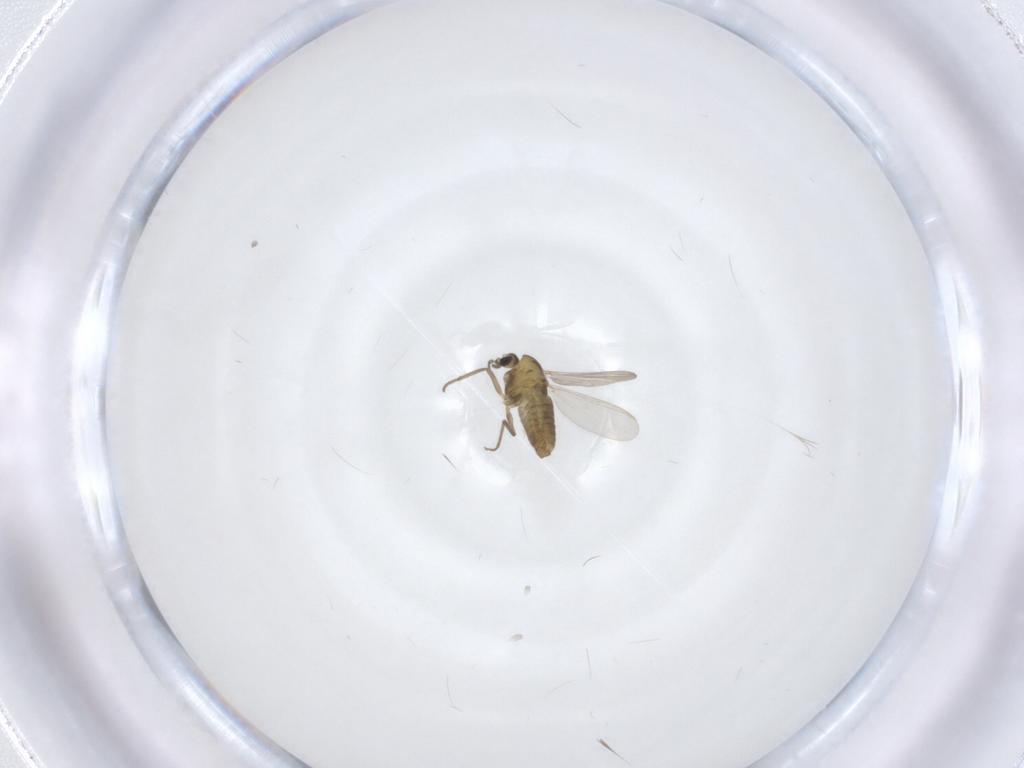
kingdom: Animalia
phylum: Arthropoda
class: Insecta
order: Diptera
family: Chironomidae
